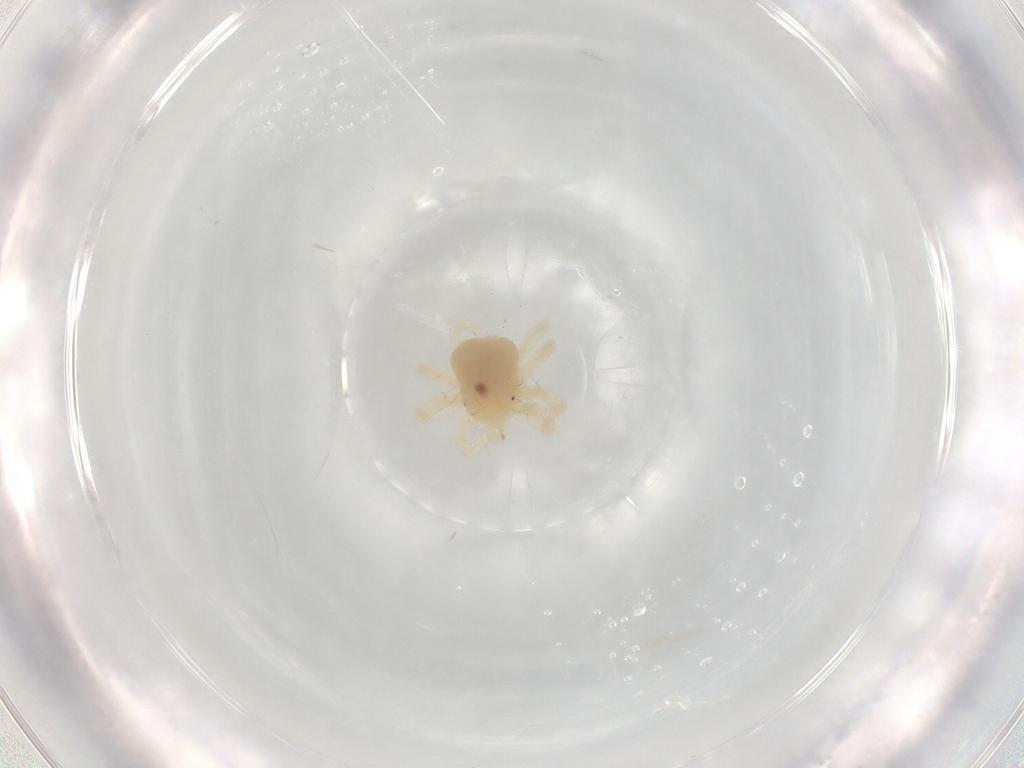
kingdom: Animalia
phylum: Arthropoda
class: Arachnida
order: Trombidiformes
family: Anystidae
